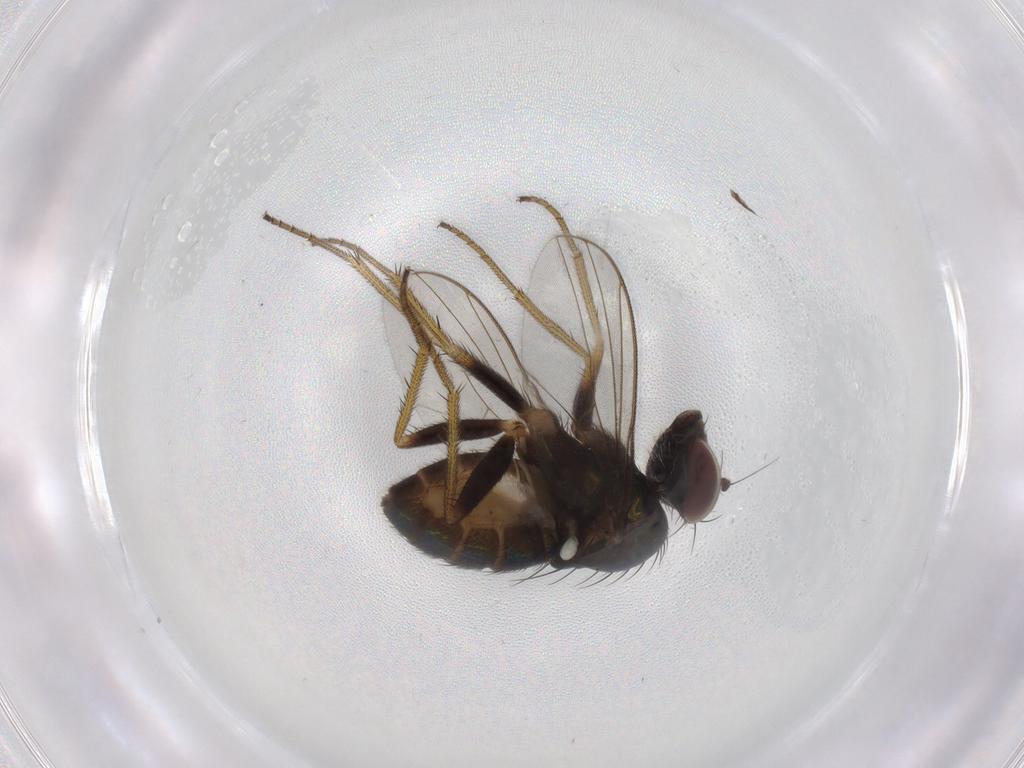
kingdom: Animalia
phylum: Arthropoda
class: Insecta
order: Diptera
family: Dolichopodidae
